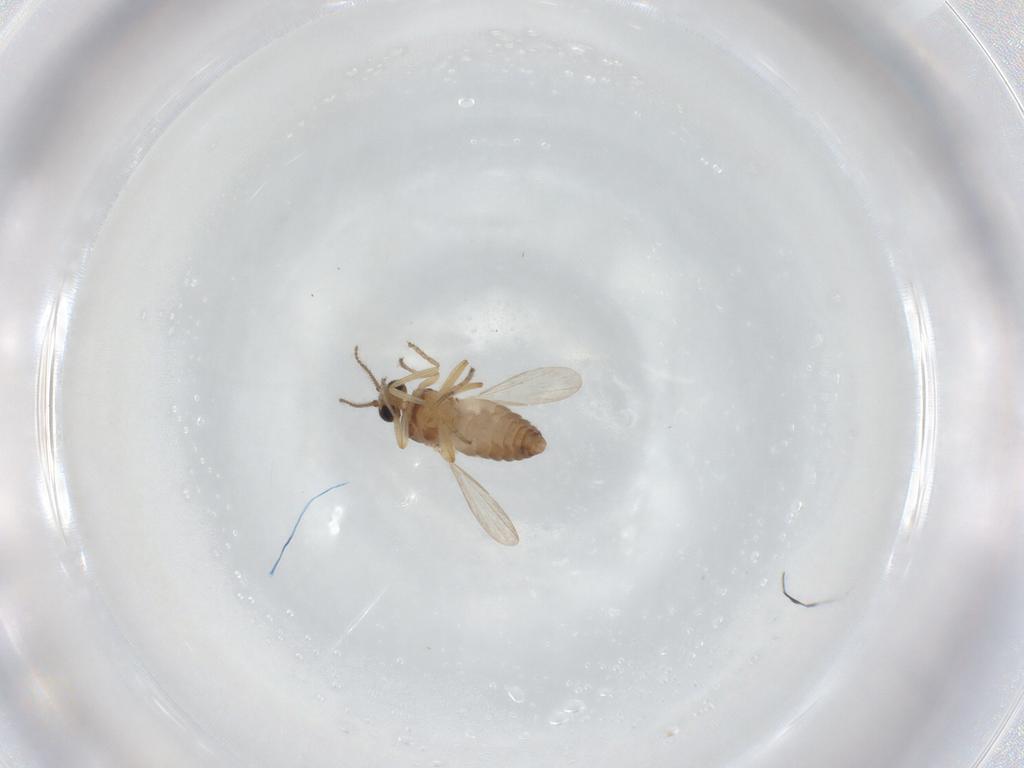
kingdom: Animalia
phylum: Arthropoda
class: Insecta
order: Diptera
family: Ceratopogonidae
